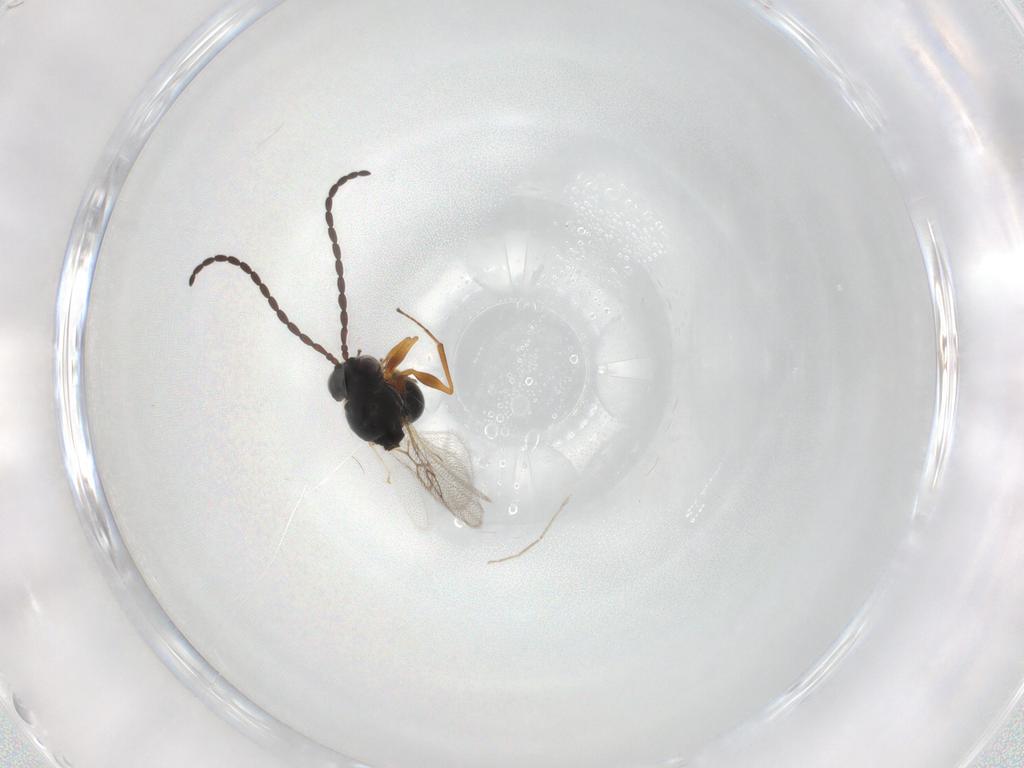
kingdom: Animalia
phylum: Arthropoda
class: Insecta
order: Hymenoptera
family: Figitidae
